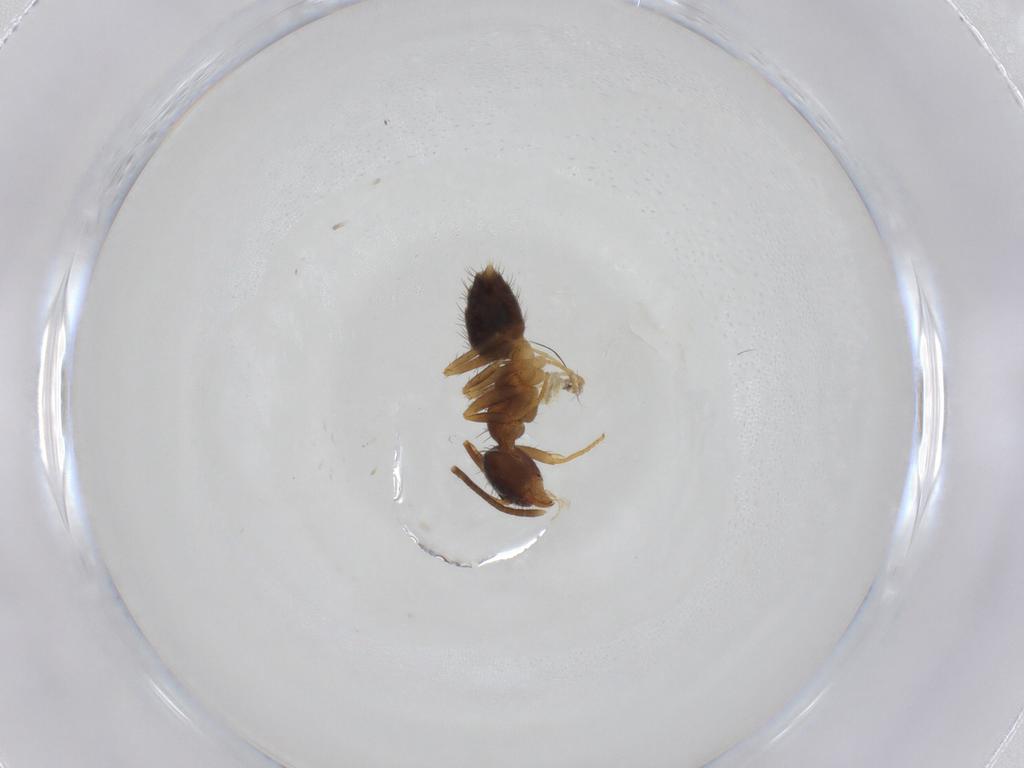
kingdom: Animalia
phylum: Arthropoda
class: Insecta
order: Hymenoptera
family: Formicidae
